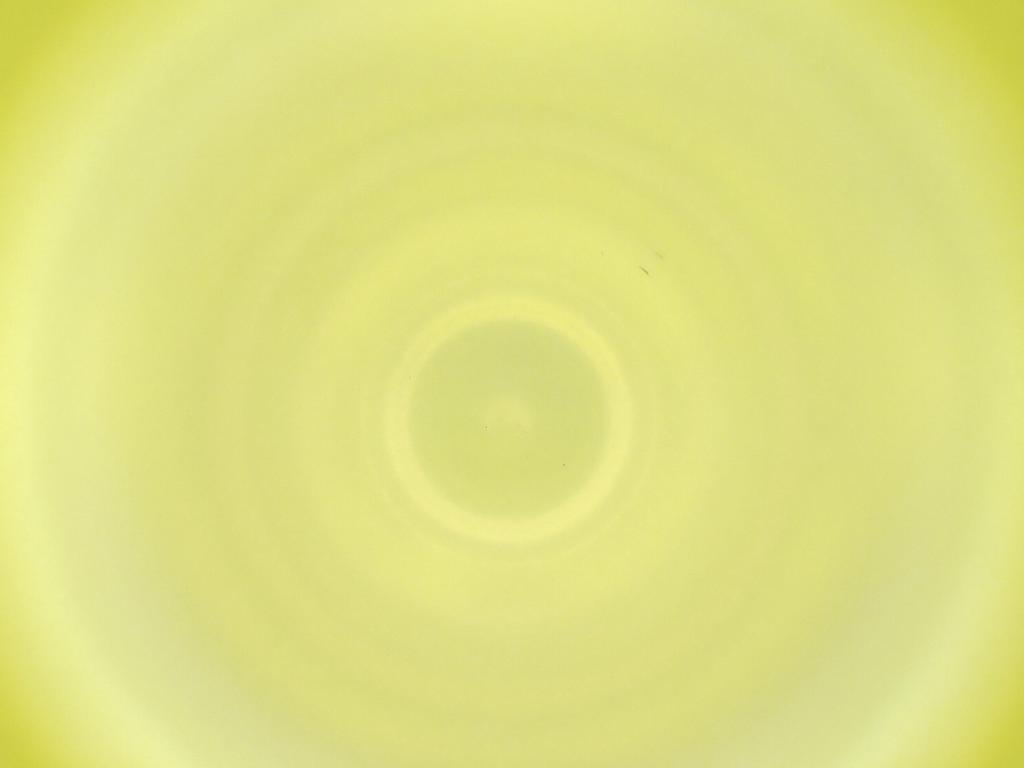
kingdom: Animalia
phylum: Arthropoda
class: Insecta
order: Diptera
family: Cecidomyiidae
